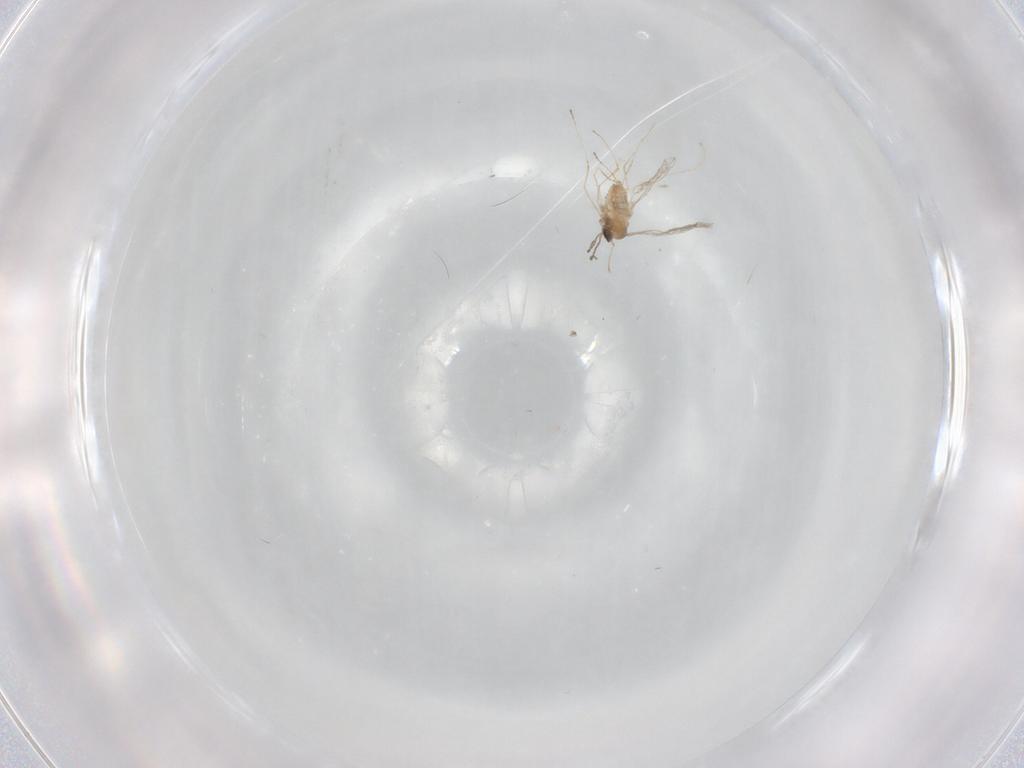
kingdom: Animalia
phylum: Arthropoda
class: Insecta
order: Diptera
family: Cecidomyiidae
